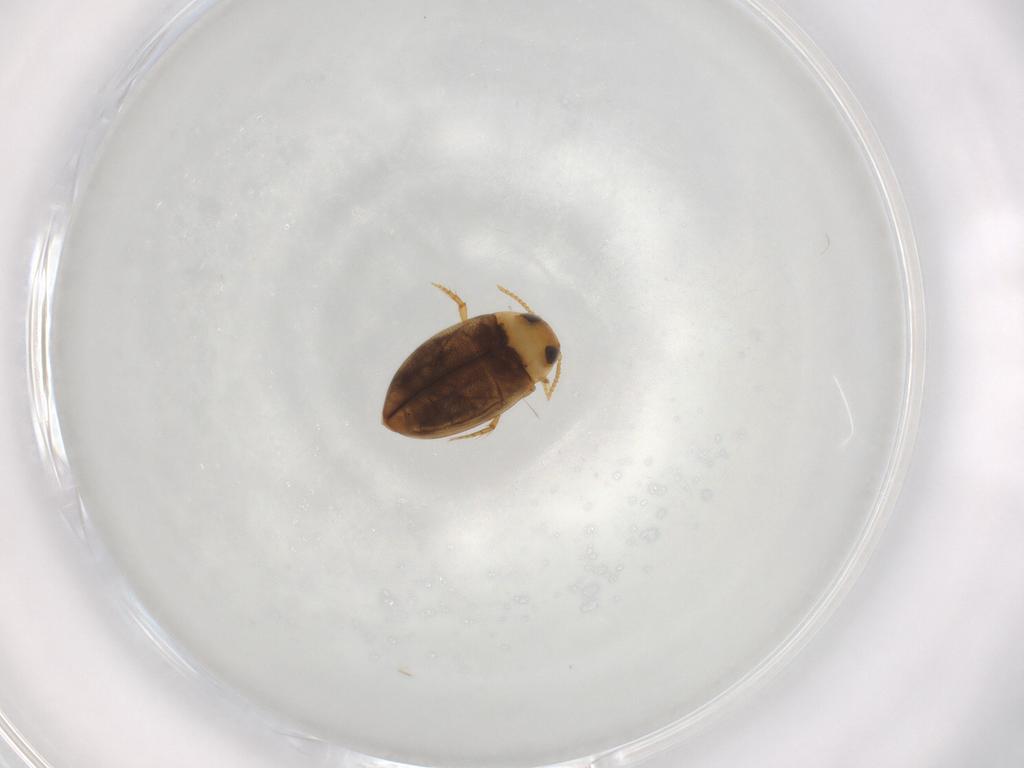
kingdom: Animalia
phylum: Arthropoda
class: Insecta
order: Coleoptera
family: Dytiscidae
